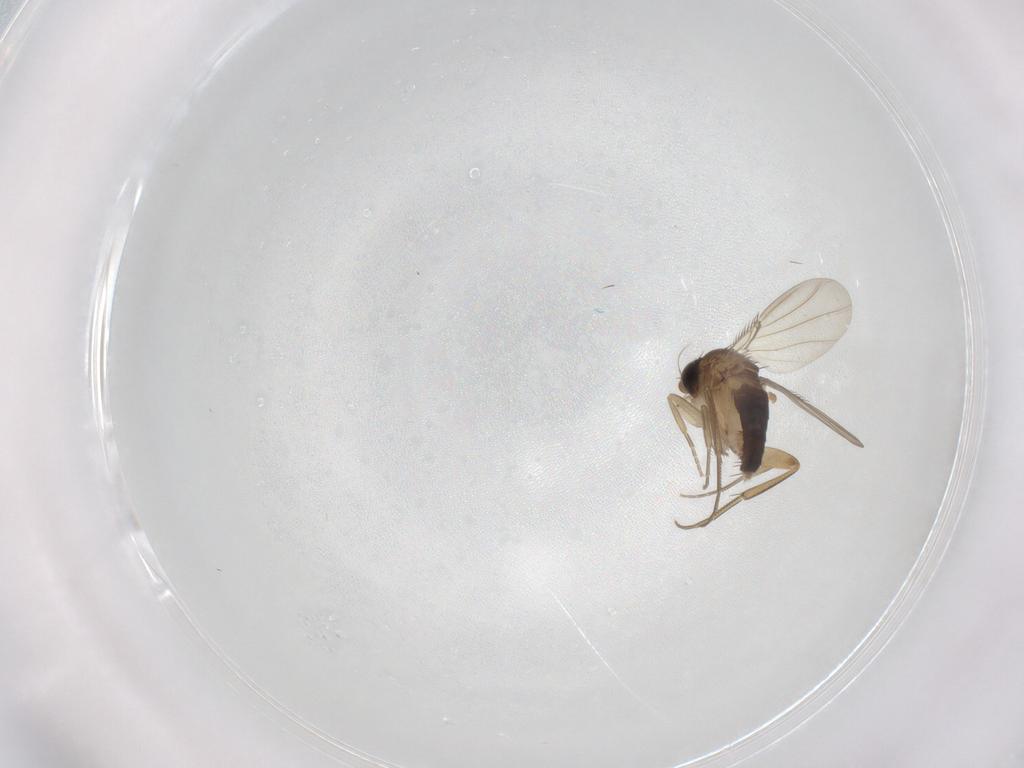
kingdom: Animalia
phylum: Arthropoda
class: Insecta
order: Diptera
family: Phoridae
